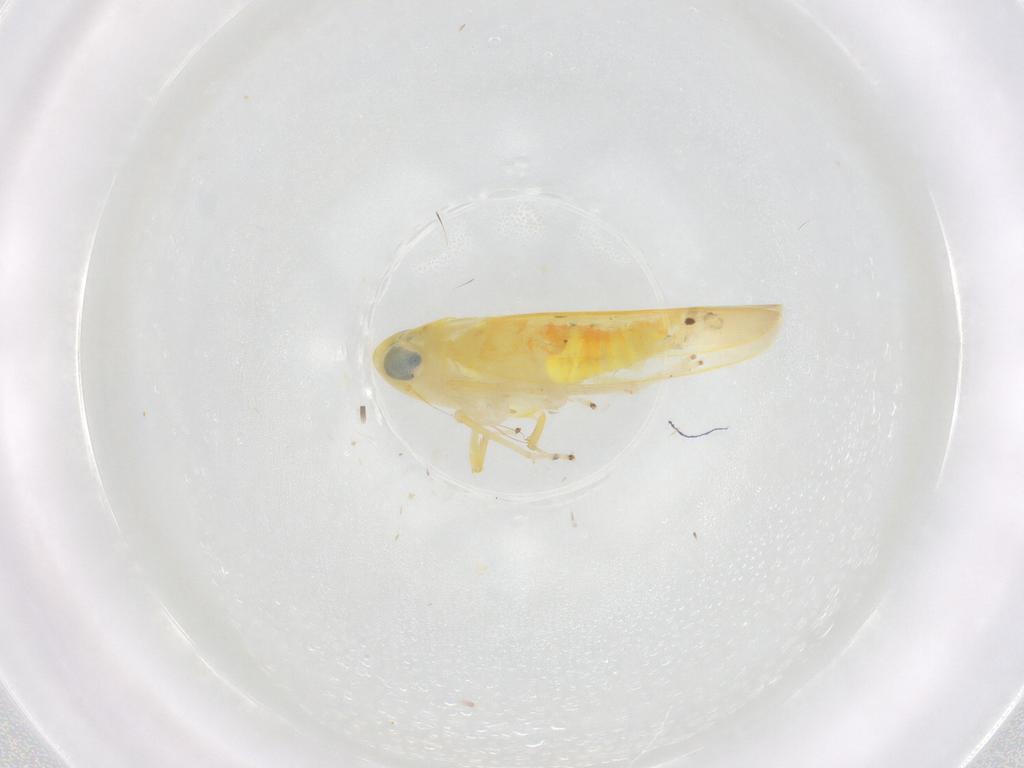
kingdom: Animalia
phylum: Arthropoda
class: Insecta
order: Hemiptera
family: Cicadellidae
